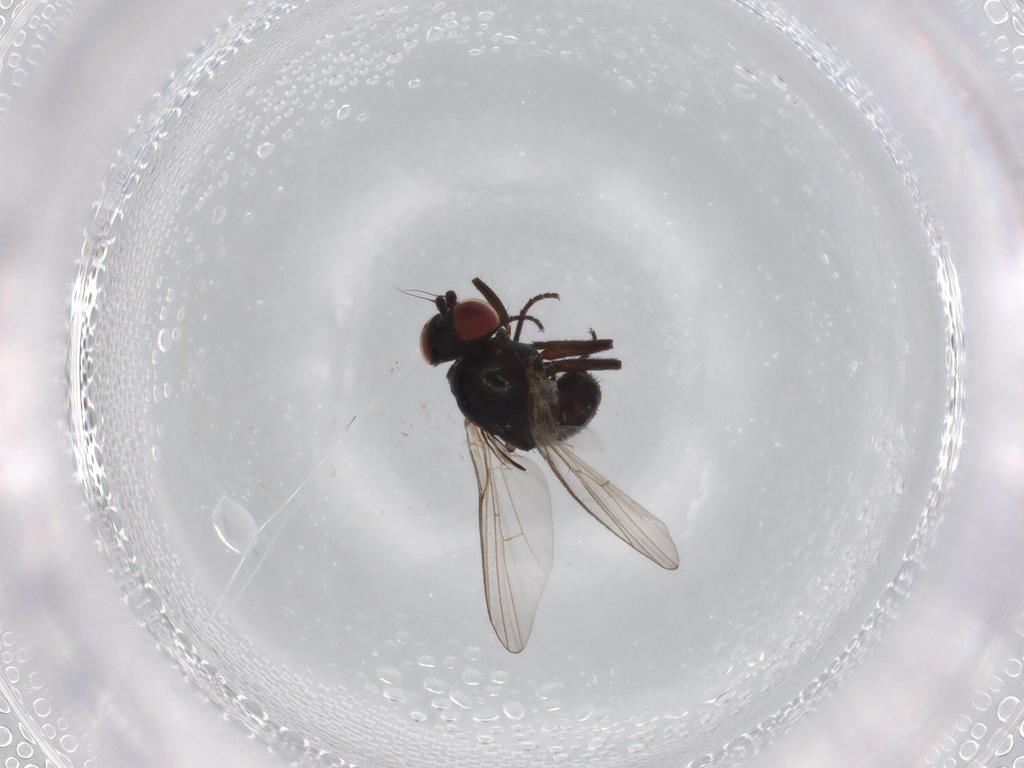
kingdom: Animalia
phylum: Arthropoda
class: Insecta
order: Diptera
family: Dolichopodidae
